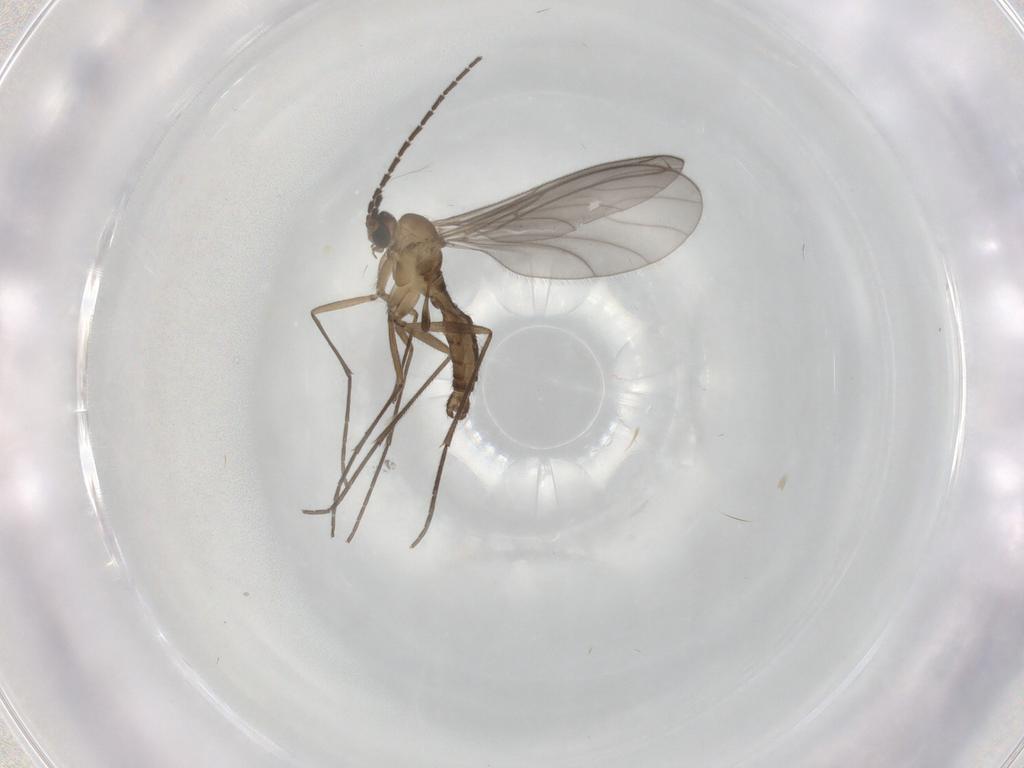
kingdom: Animalia
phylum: Arthropoda
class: Insecta
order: Diptera
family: Sciaridae
